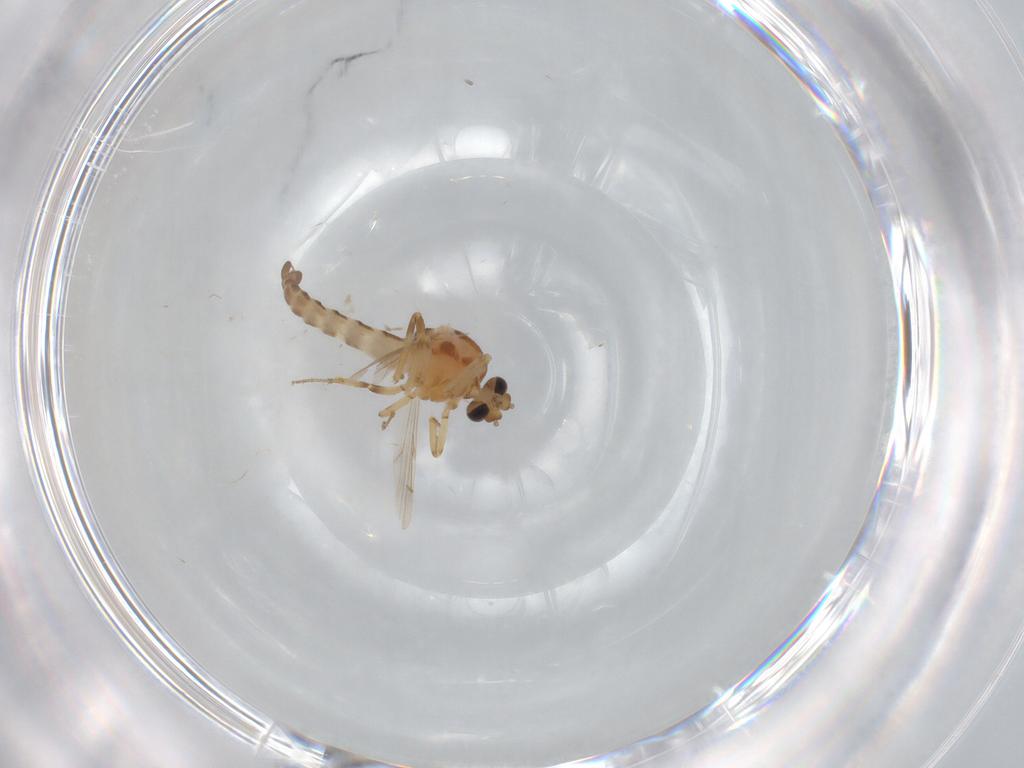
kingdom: Animalia
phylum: Arthropoda
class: Insecta
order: Diptera
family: Ceratopogonidae
